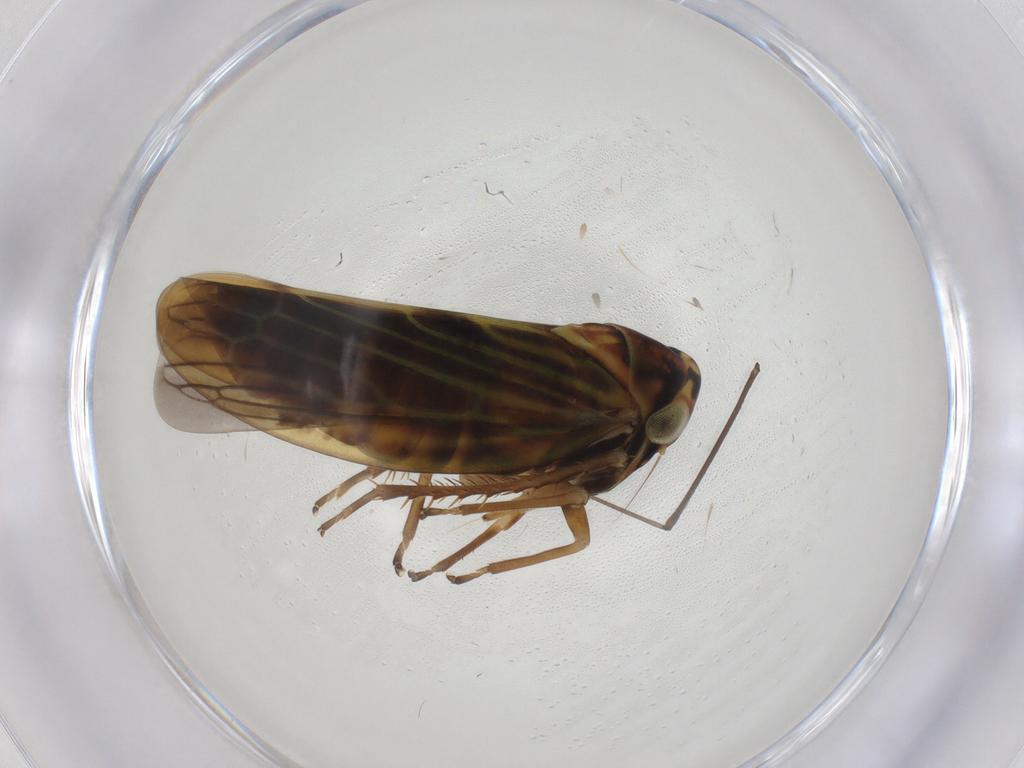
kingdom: Animalia
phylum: Arthropoda
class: Insecta
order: Hemiptera
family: Cicadellidae
